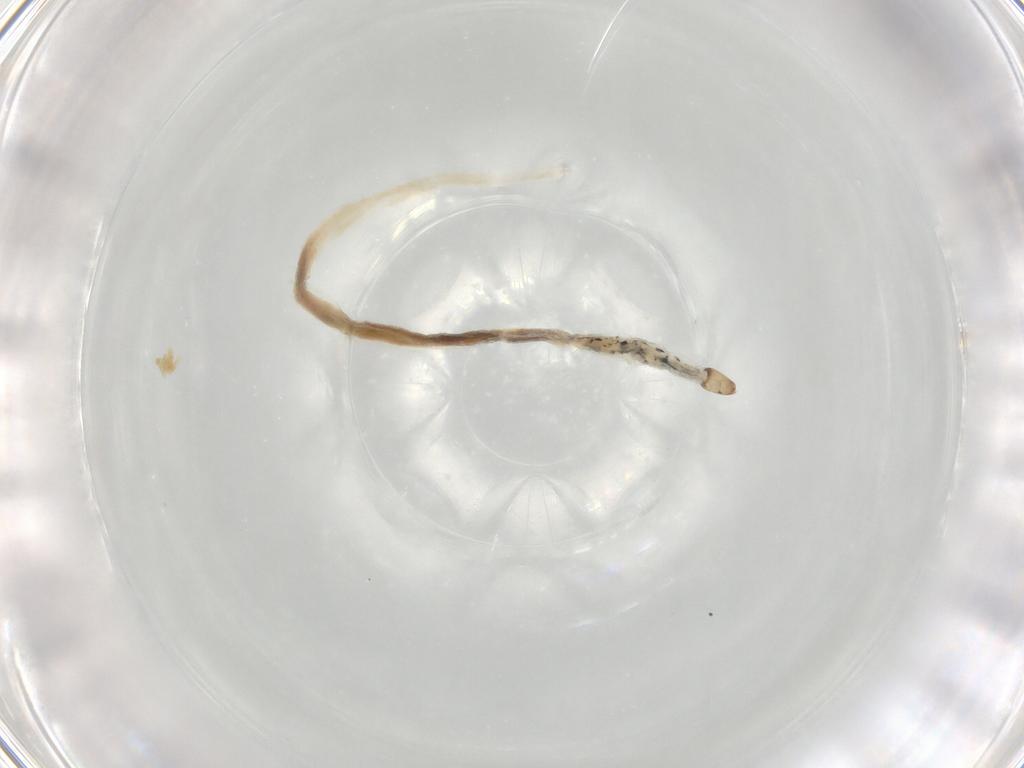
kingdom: Animalia
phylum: Arthropoda
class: Insecta
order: Diptera
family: Ceratopogonidae
